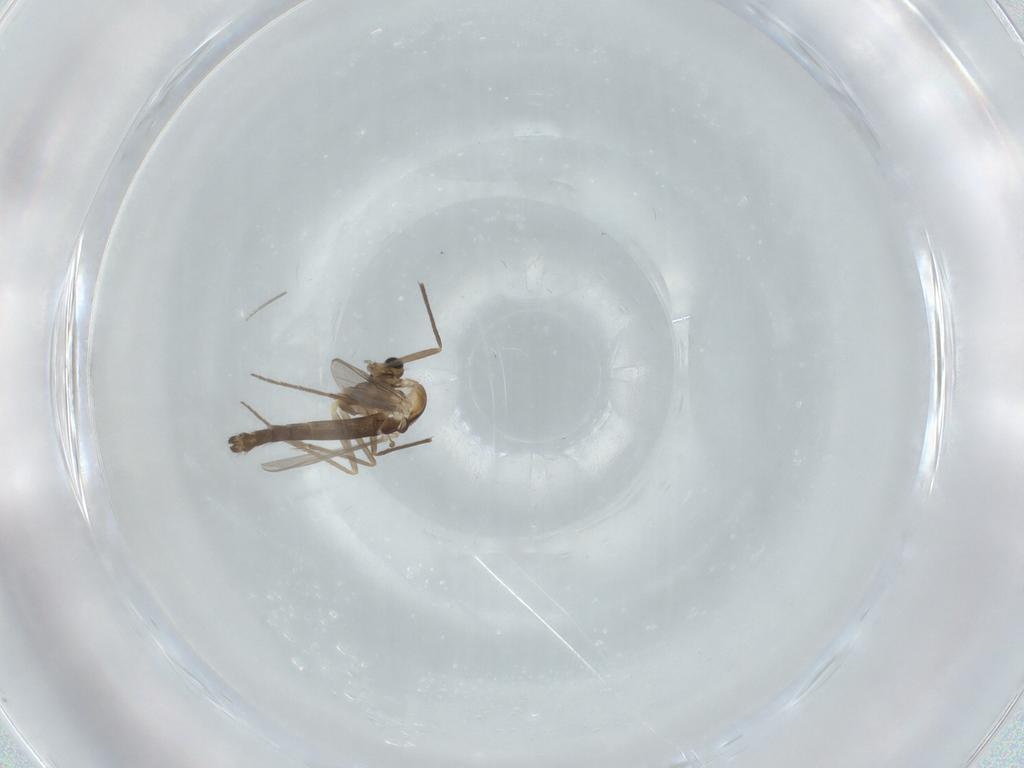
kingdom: Animalia
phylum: Arthropoda
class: Insecta
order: Diptera
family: Chironomidae
